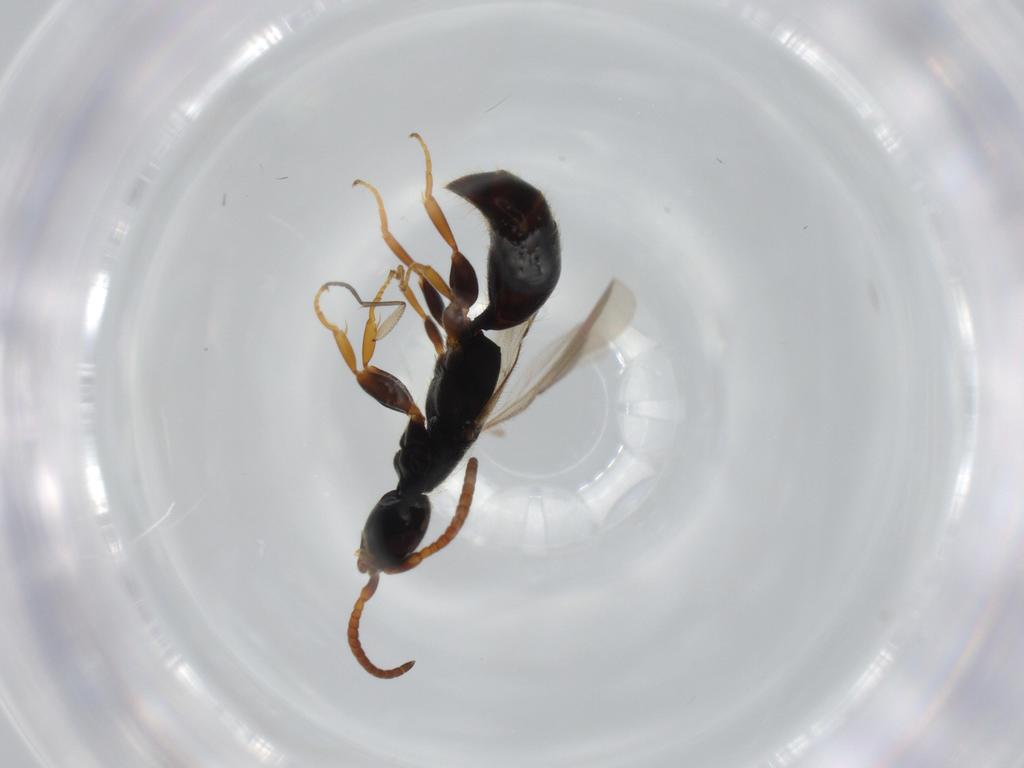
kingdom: Animalia
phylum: Arthropoda
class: Insecta
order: Hymenoptera
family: Bethylidae
